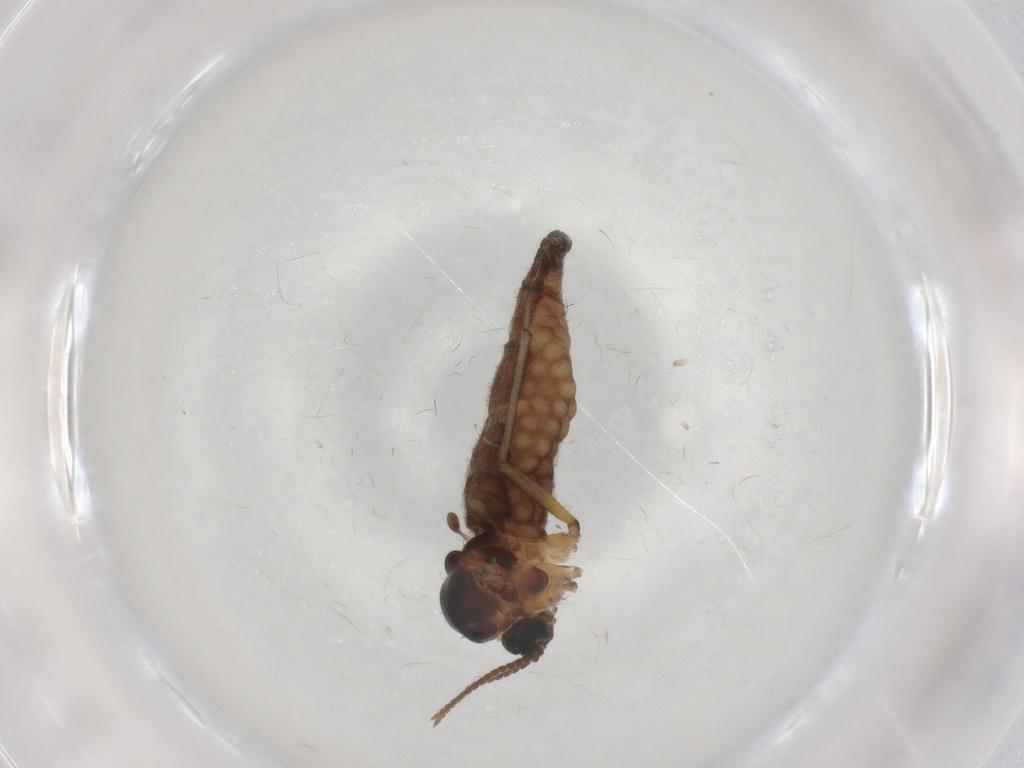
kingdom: Animalia
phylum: Arthropoda
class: Insecta
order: Diptera
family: Sciaridae
